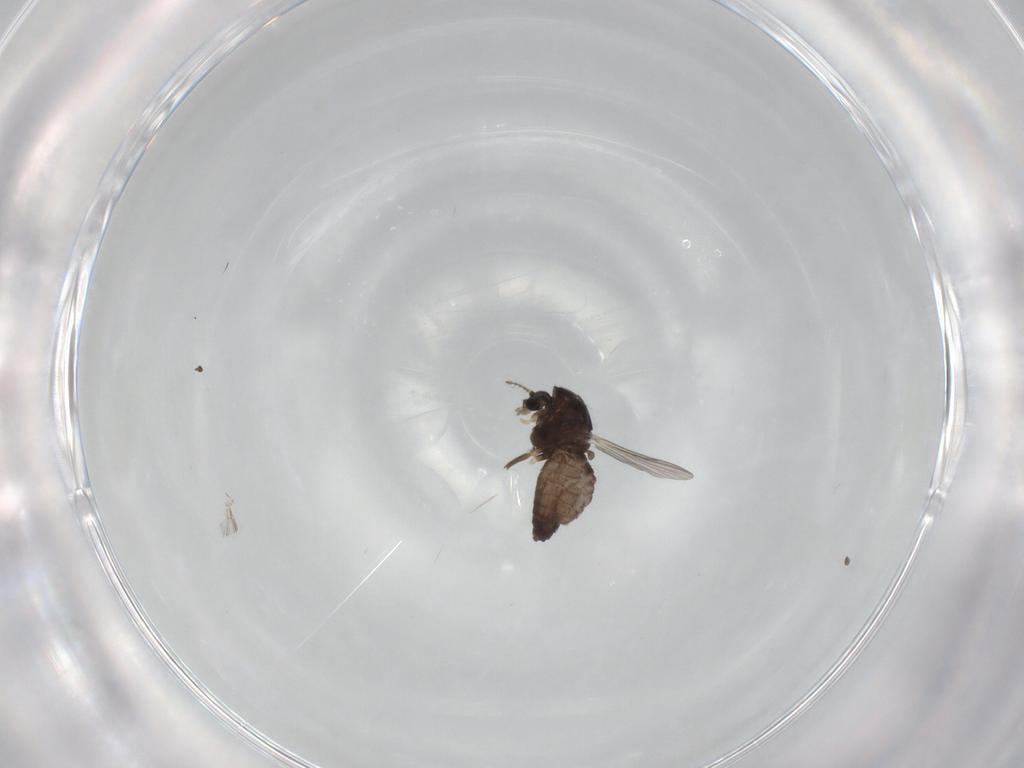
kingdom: Animalia
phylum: Arthropoda
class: Insecta
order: Diptera
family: Chironomidae
